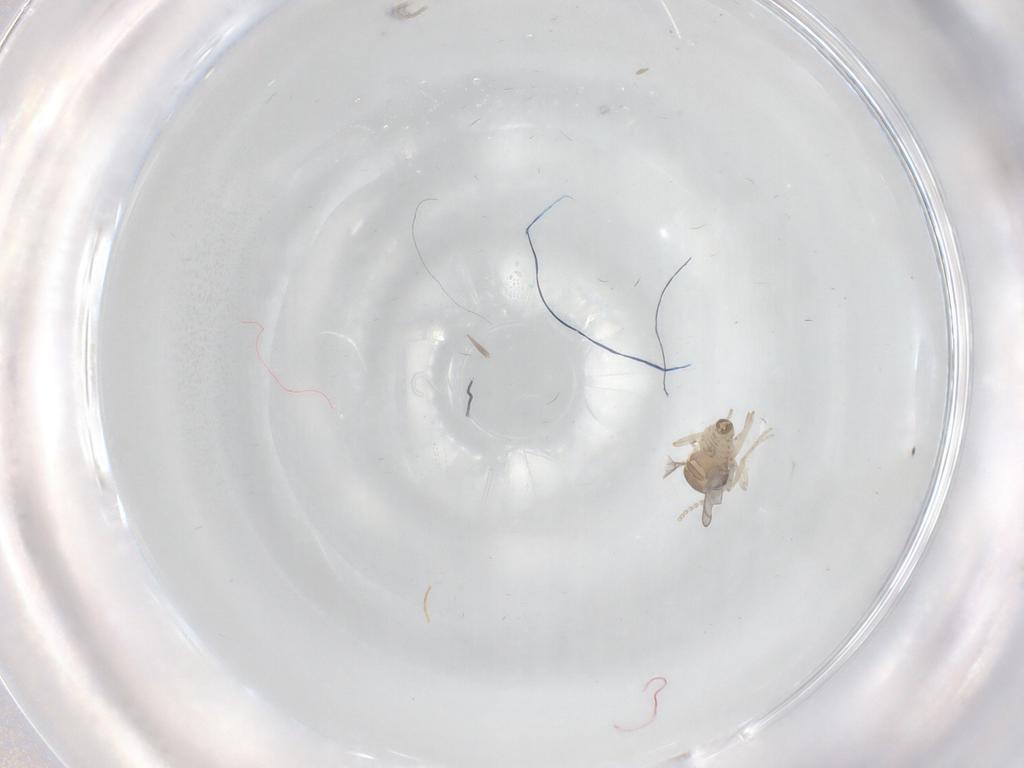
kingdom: Animalia
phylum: Arthropoda
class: Insecta
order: Diptera
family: Cecidomyiidae
